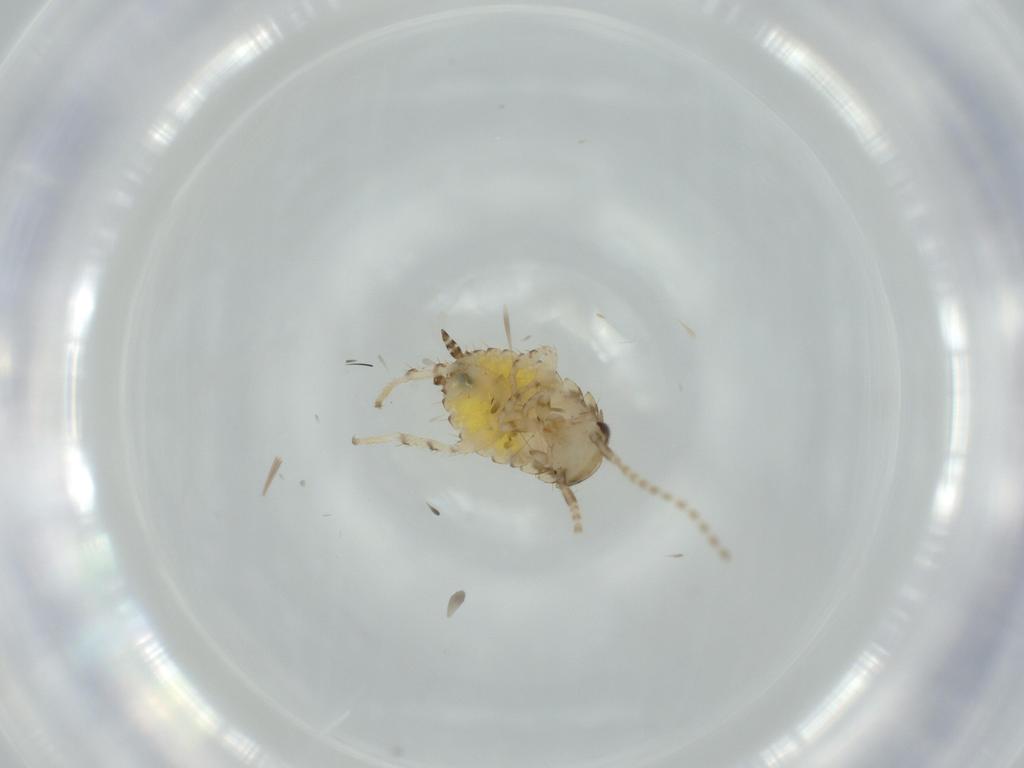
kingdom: Animalia
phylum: Arthropoda
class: Insecta
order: Blattodea
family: Ectobiidae
